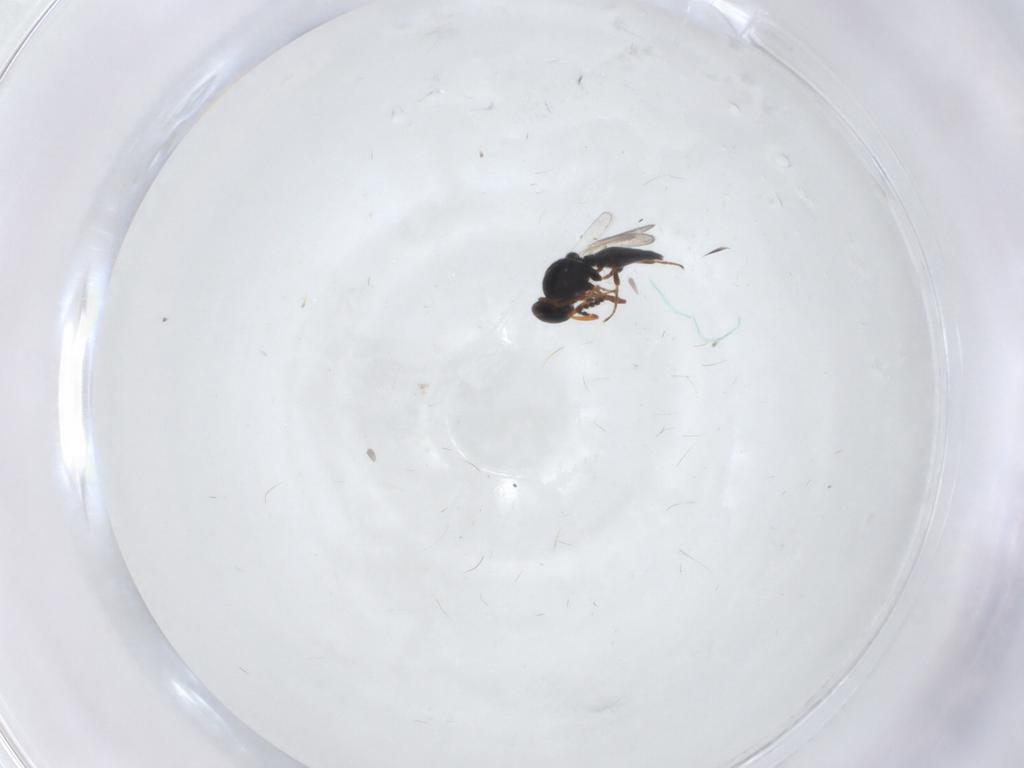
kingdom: Animalia
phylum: Arthropoda
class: Insecta
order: Hymenoptera
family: Platygastridae
